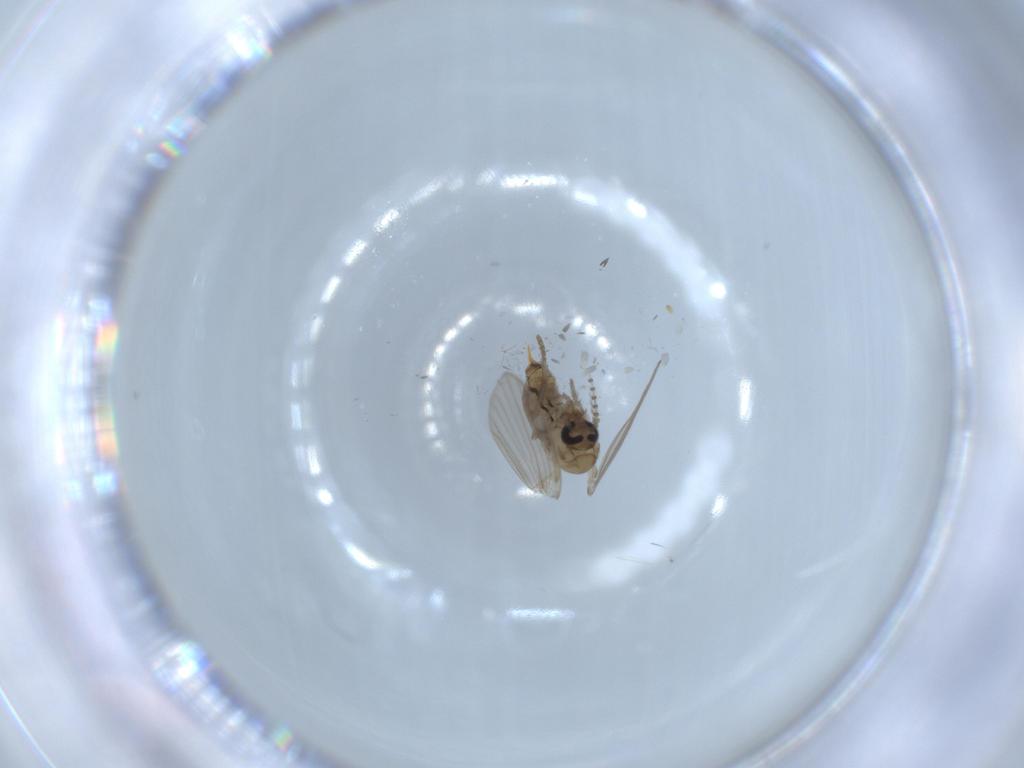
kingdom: Animalia
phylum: Arthropoda
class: Insecta
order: Diptera
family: Psychodidae
